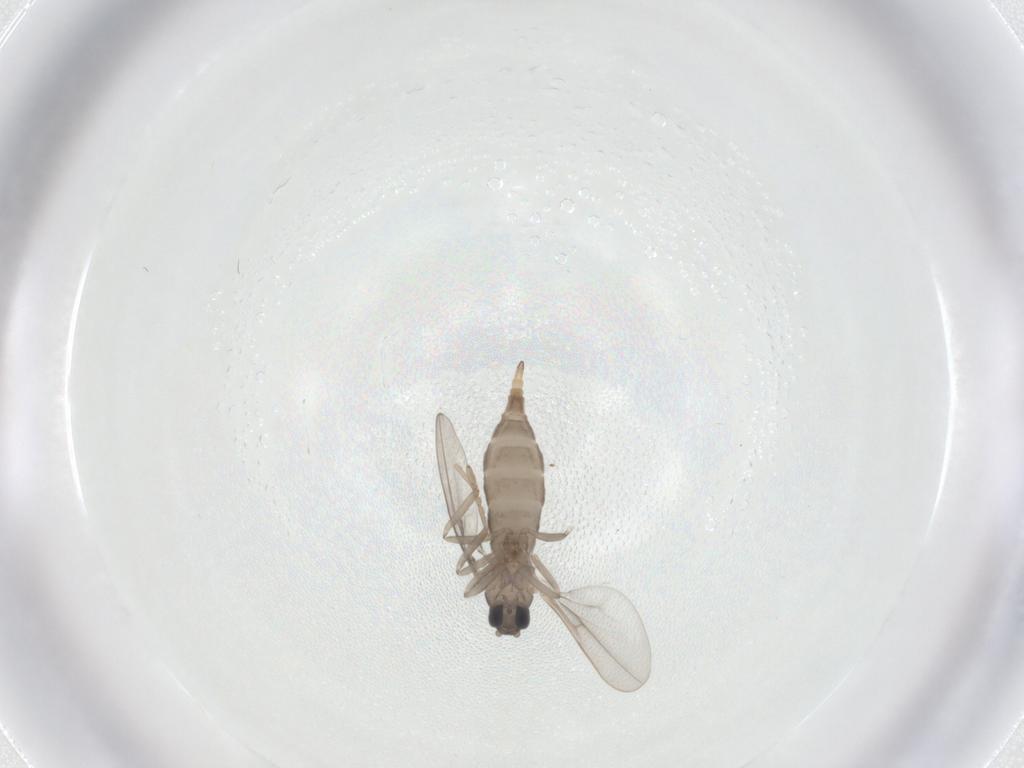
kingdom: Animalia
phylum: Arthropoda
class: Insecta
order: Diptera
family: Cecidomyiidae
